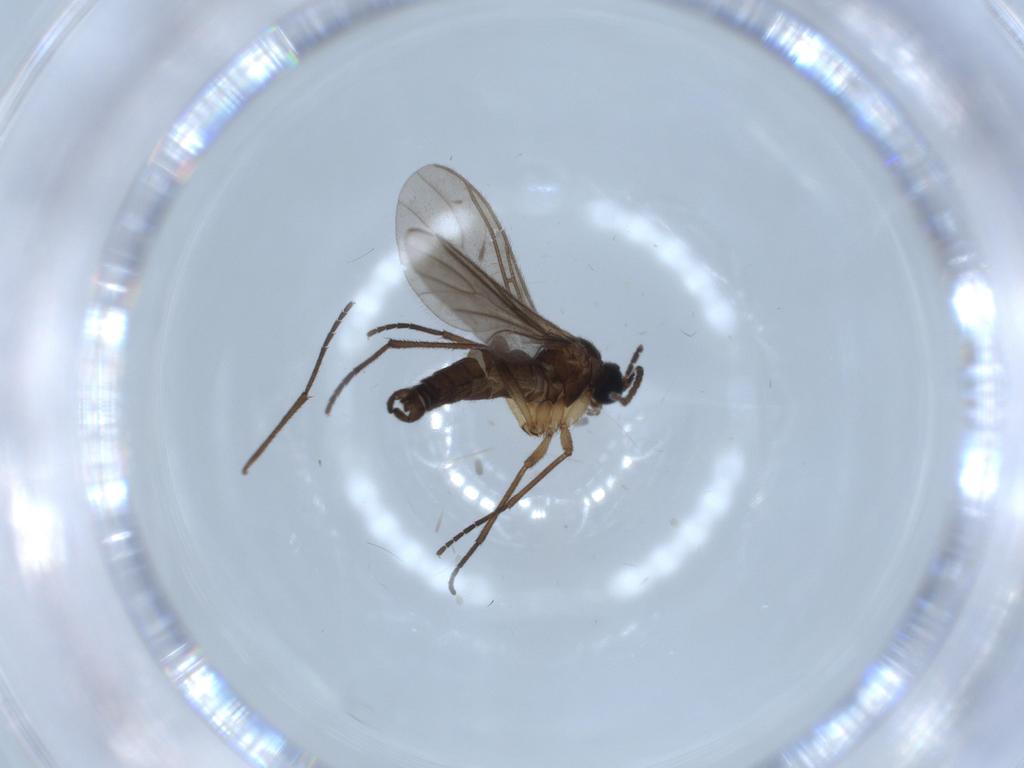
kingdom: Animalia
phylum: Arthropoda
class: Insecta
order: Diptera
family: Sciaridae
